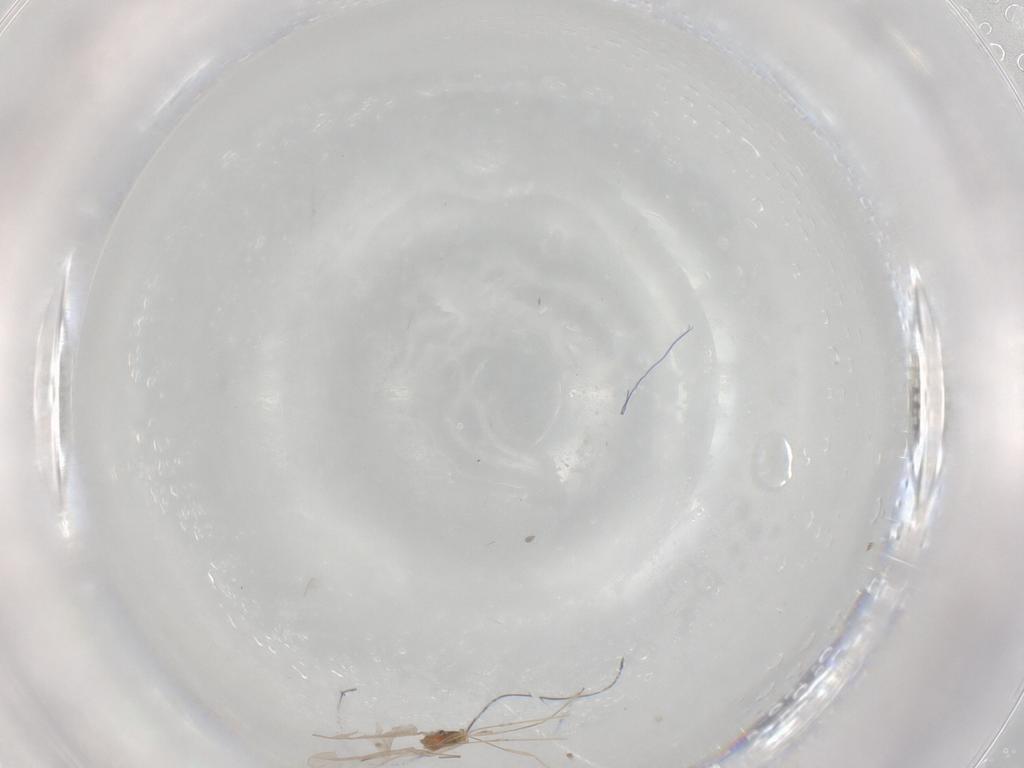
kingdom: Animalia
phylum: Arthropoda
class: Insecta
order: Diptera
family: Cecidomyiidae
